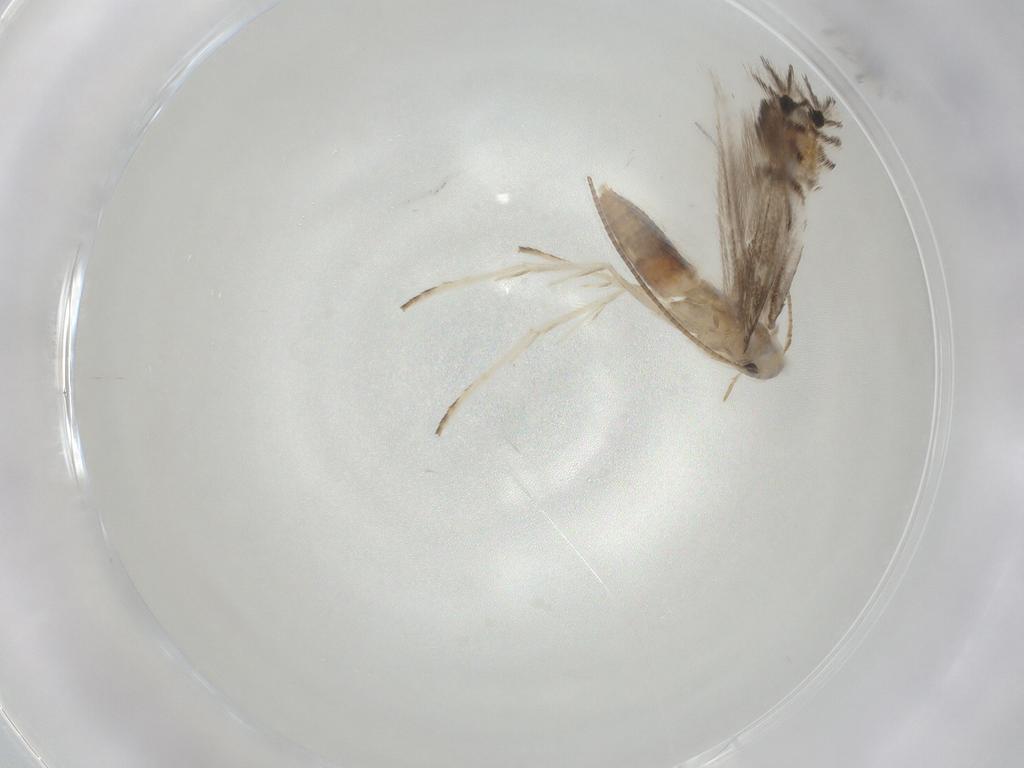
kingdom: Animalia
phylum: Arthropoda
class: Insecta
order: Lepidoptera
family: Gracillariidae
